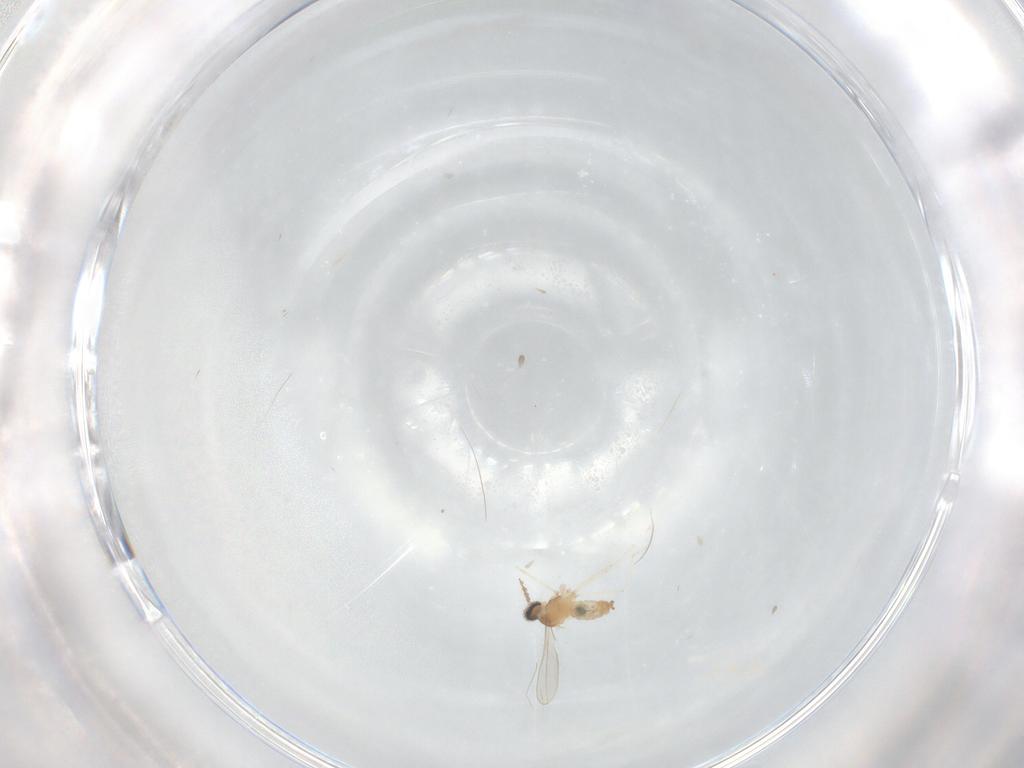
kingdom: Animalia
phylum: Arthropoda
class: Insecta
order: Diptera
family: Cecidomyiidae
